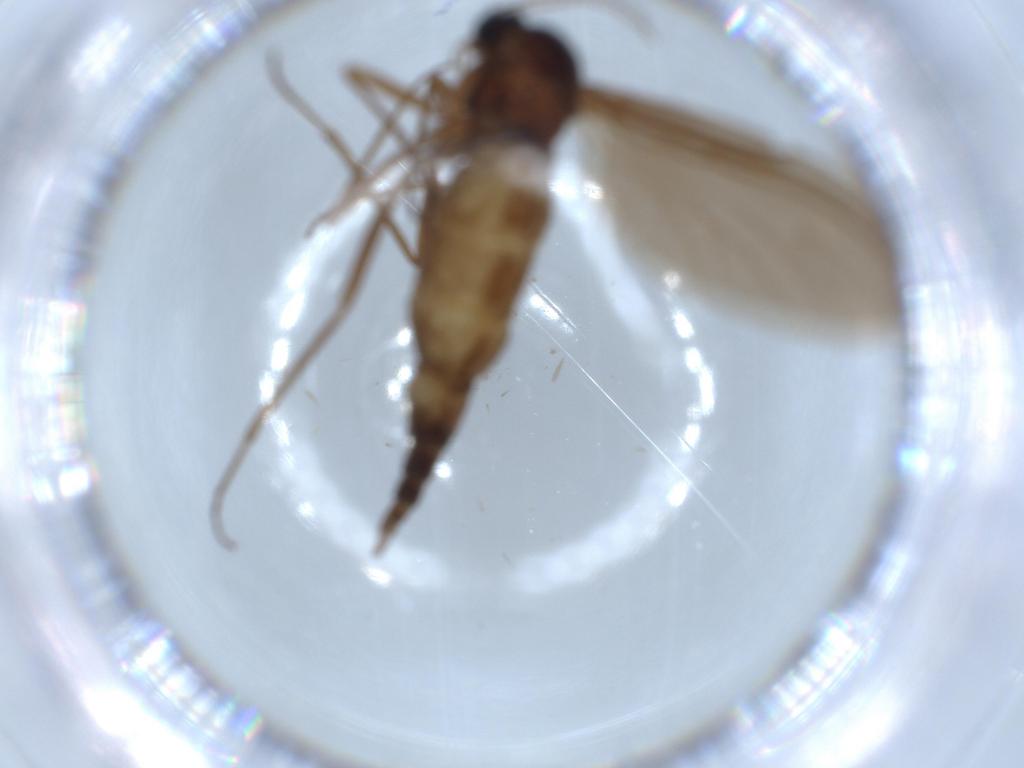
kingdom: Animalia
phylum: Arthropoda
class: Insecta
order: Diptera
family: Sciaridae
